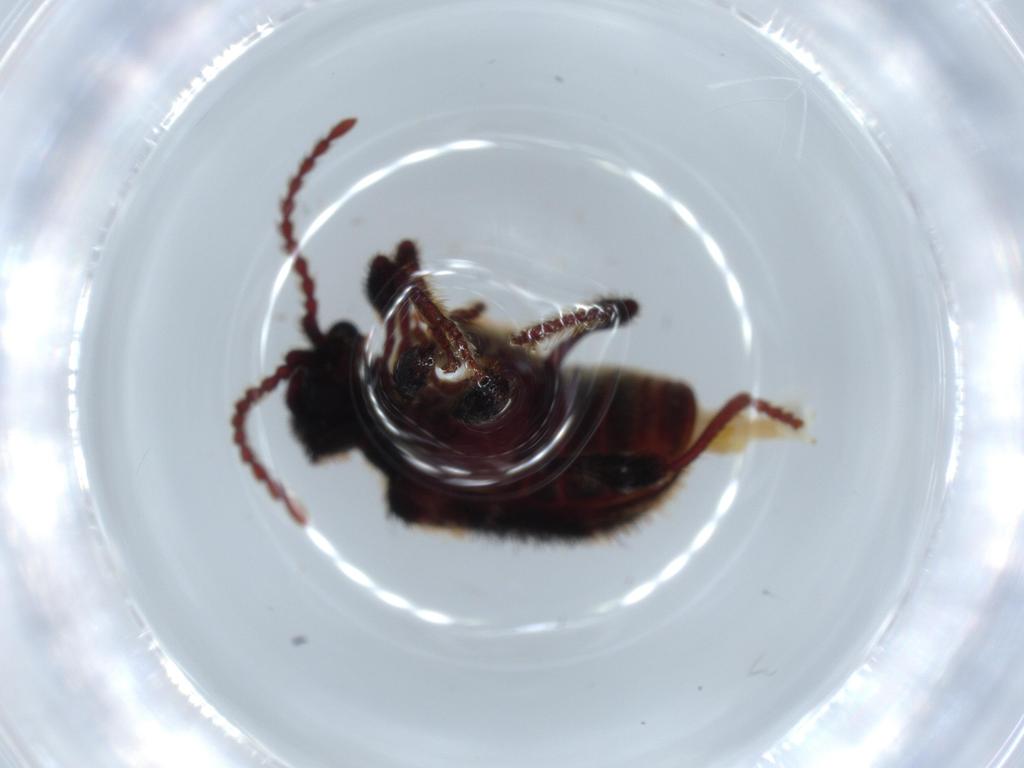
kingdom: Animalia
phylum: Arthropoda
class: Insecta
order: Coleoptera
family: Ptinidae
